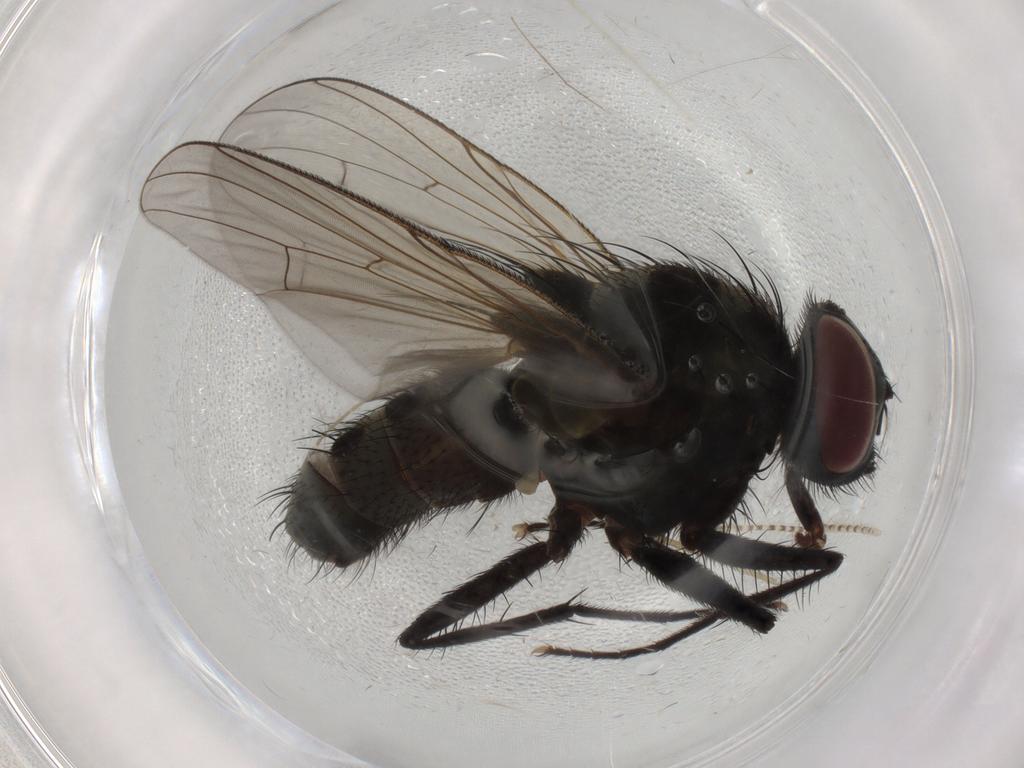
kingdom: Animalia
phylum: Arthropoda
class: Insecta
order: Diptera
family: Muscidae
